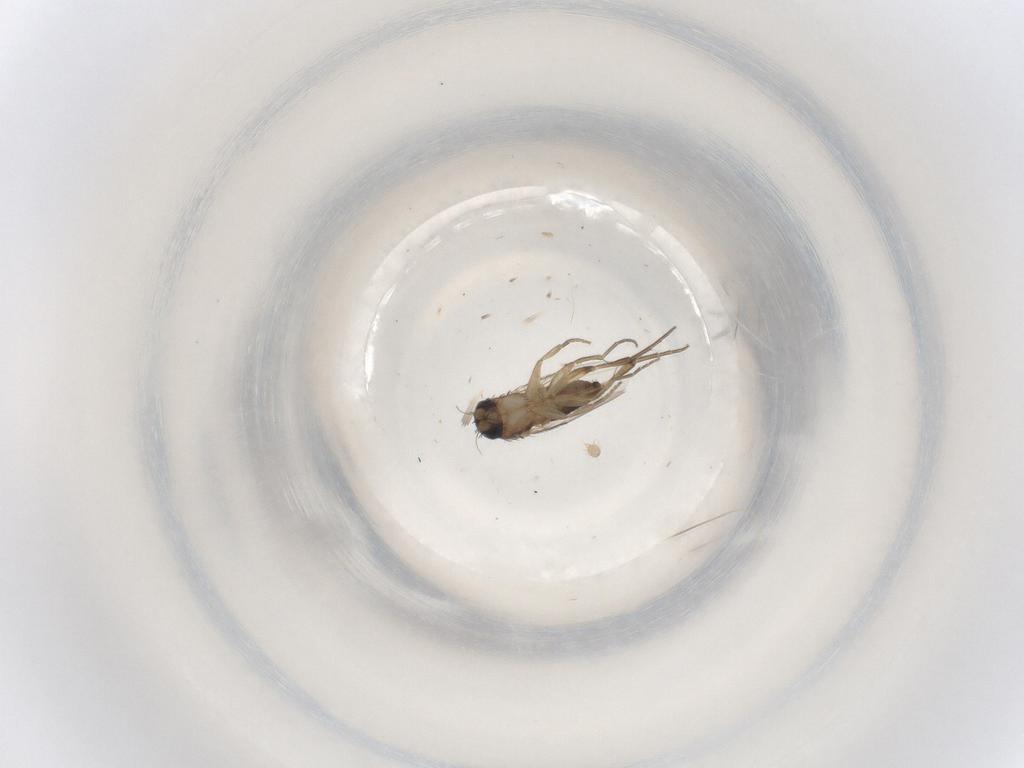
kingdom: Animalia
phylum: Arthropoda
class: Insecta
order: Diptera
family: Phoridae
